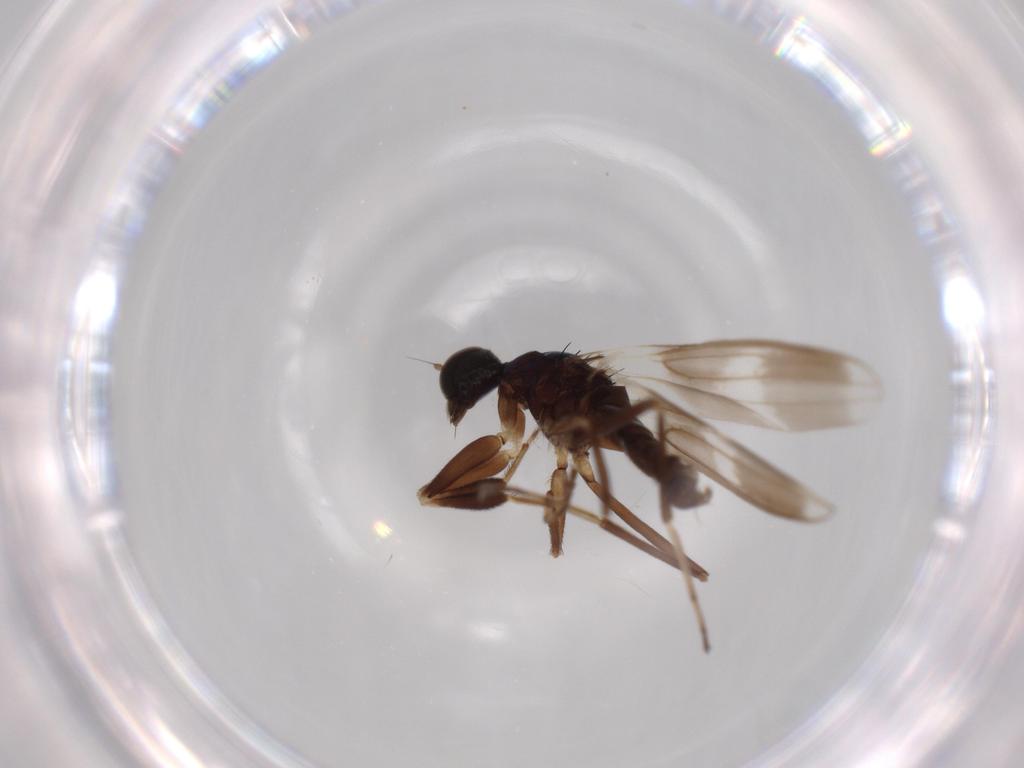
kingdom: Animalia
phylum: Arthropoda
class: Insecta
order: Diptera
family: Hybotidae
